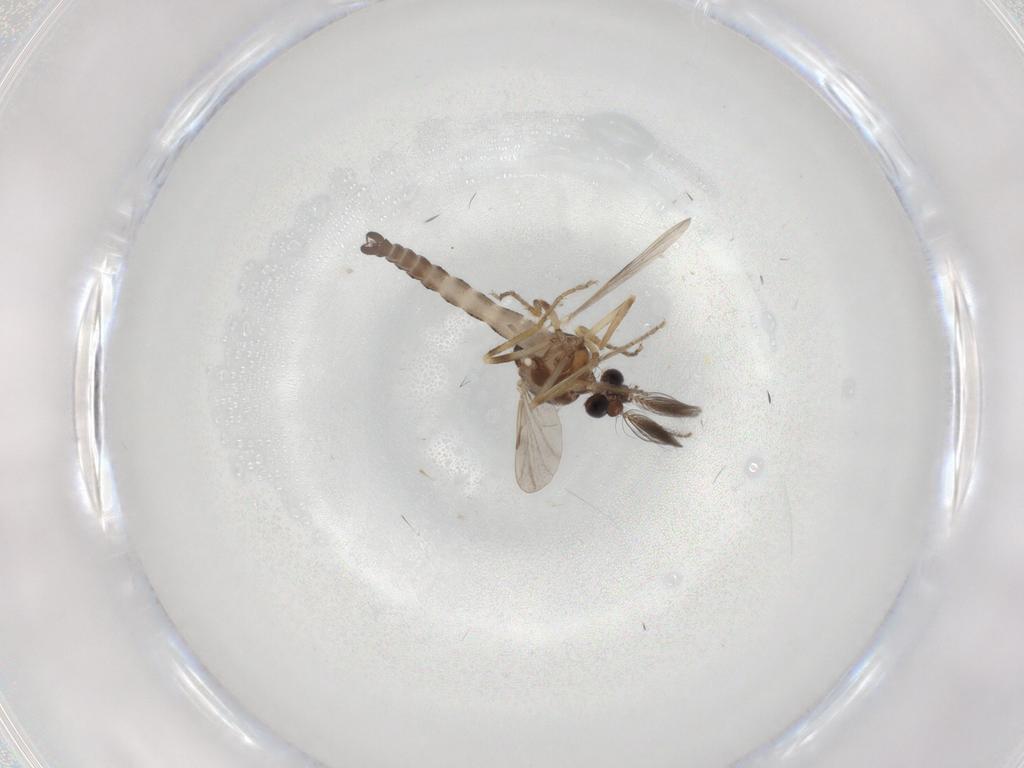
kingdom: Animalia
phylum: Arthropoda
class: Insecta
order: Diptera
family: Ceratopogonidae
